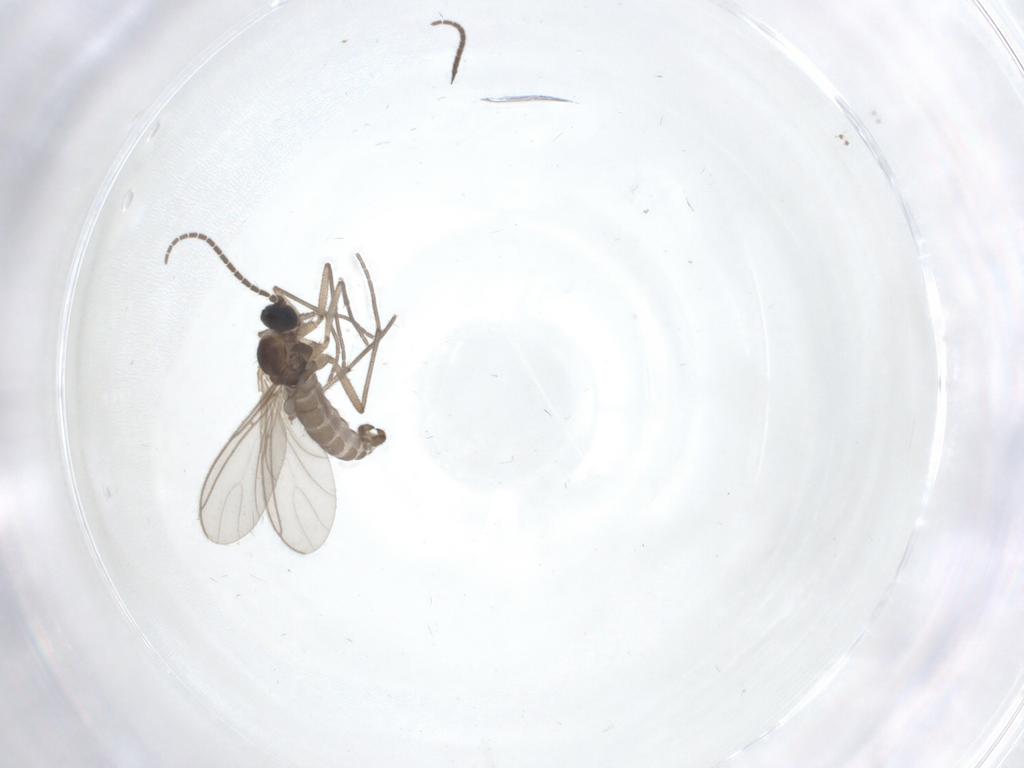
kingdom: Animalia
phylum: Arthropoda
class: Insecta
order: Diptera
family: Sciaridae
